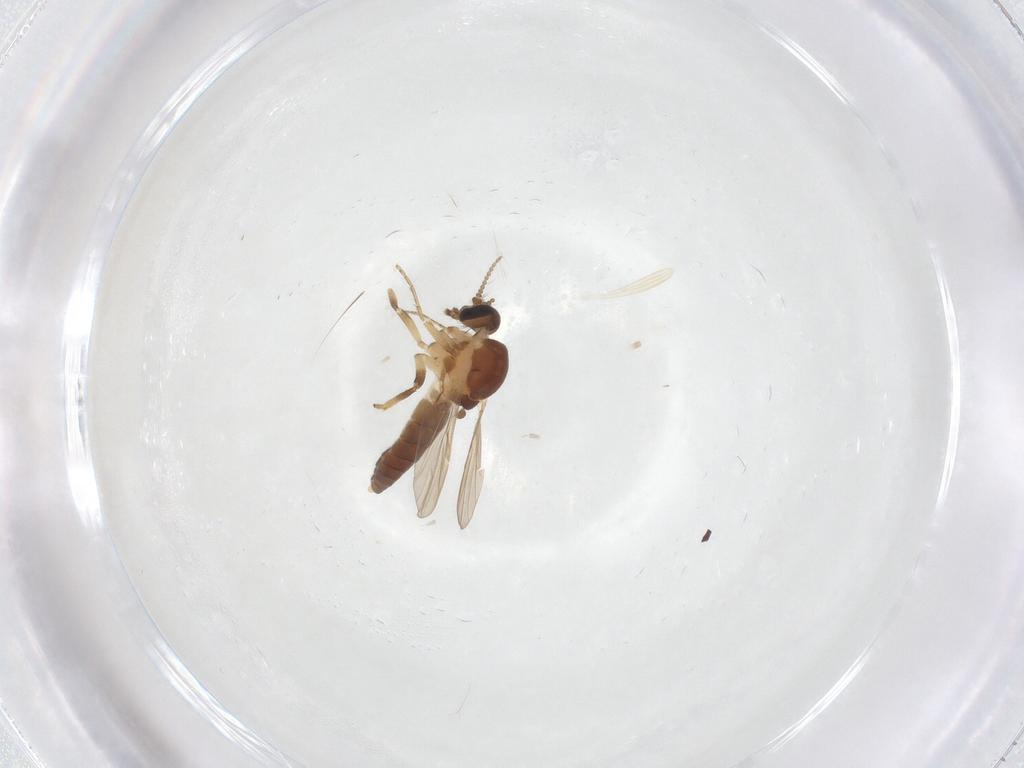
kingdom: Animalia
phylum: Arthropoda
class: Insecta
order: Diptera
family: Ceratopogonidae
